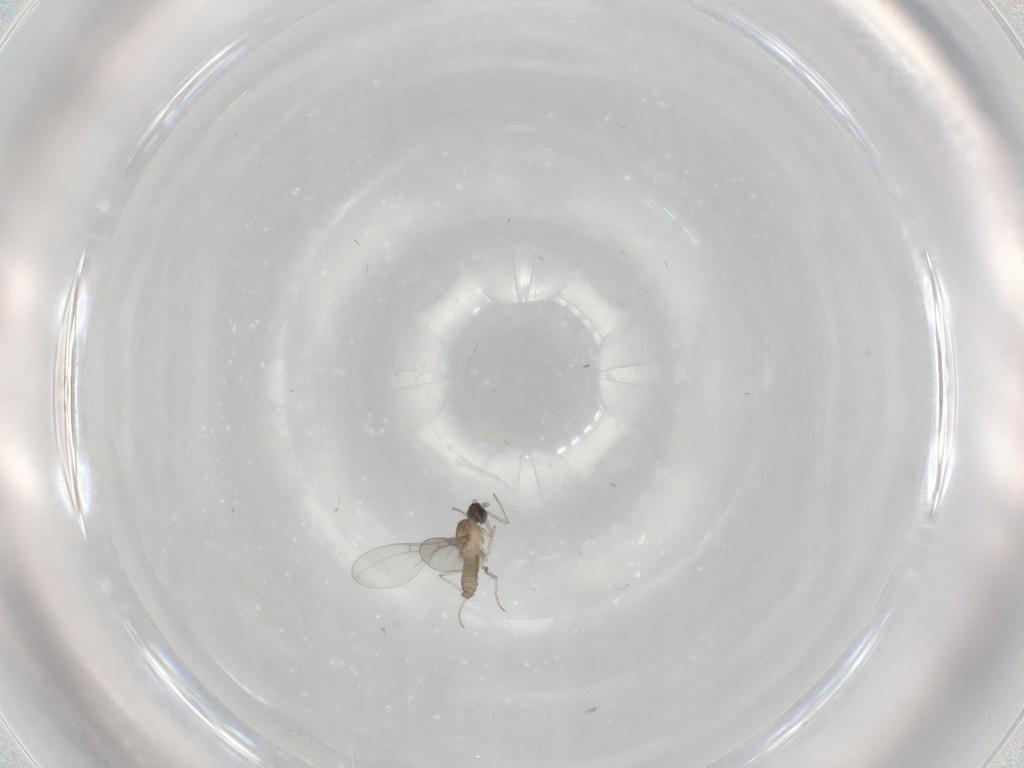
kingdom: Animalia
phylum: Arthropoda
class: Insecta
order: Diptera
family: Cecidomyiidae
